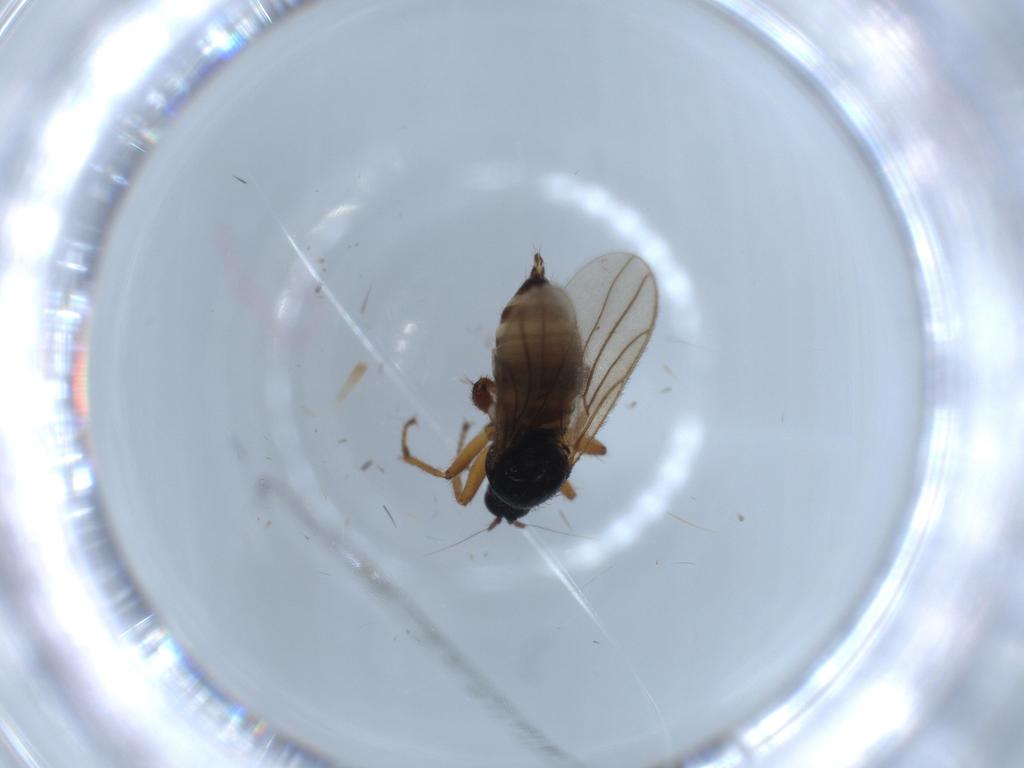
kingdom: Animalia
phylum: Arthropoda
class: Insecta
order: Diptera
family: Hybotidae
